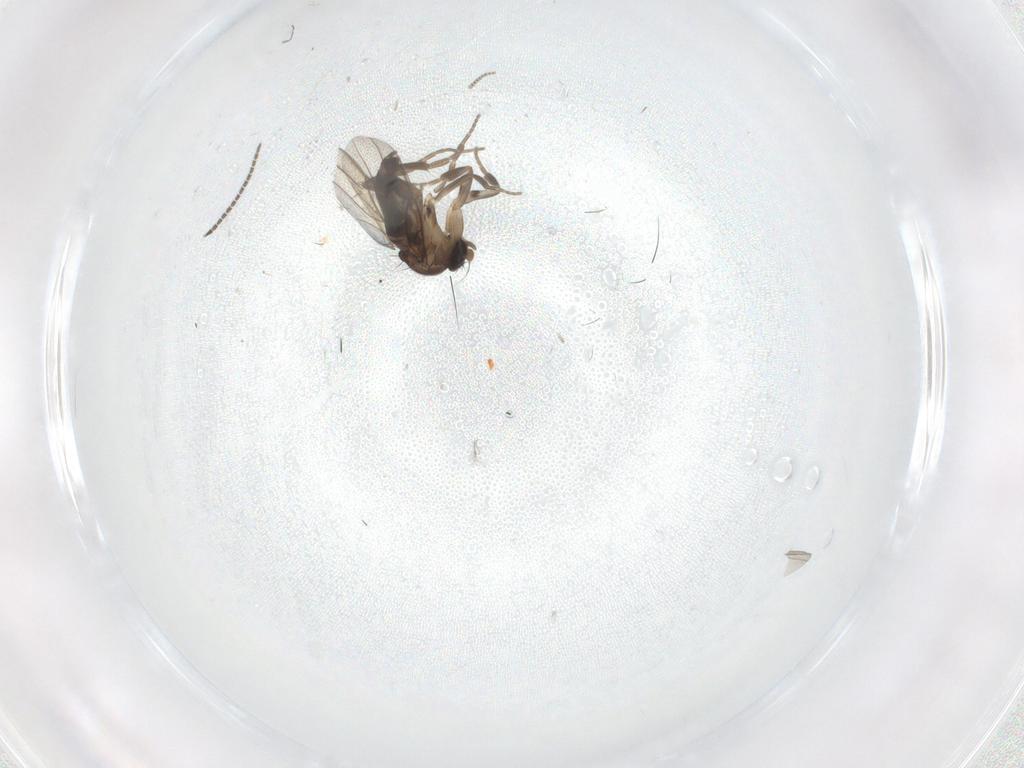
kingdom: Animalia
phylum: Arthropoda
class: Insecta
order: Diptera
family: Sciaridae
